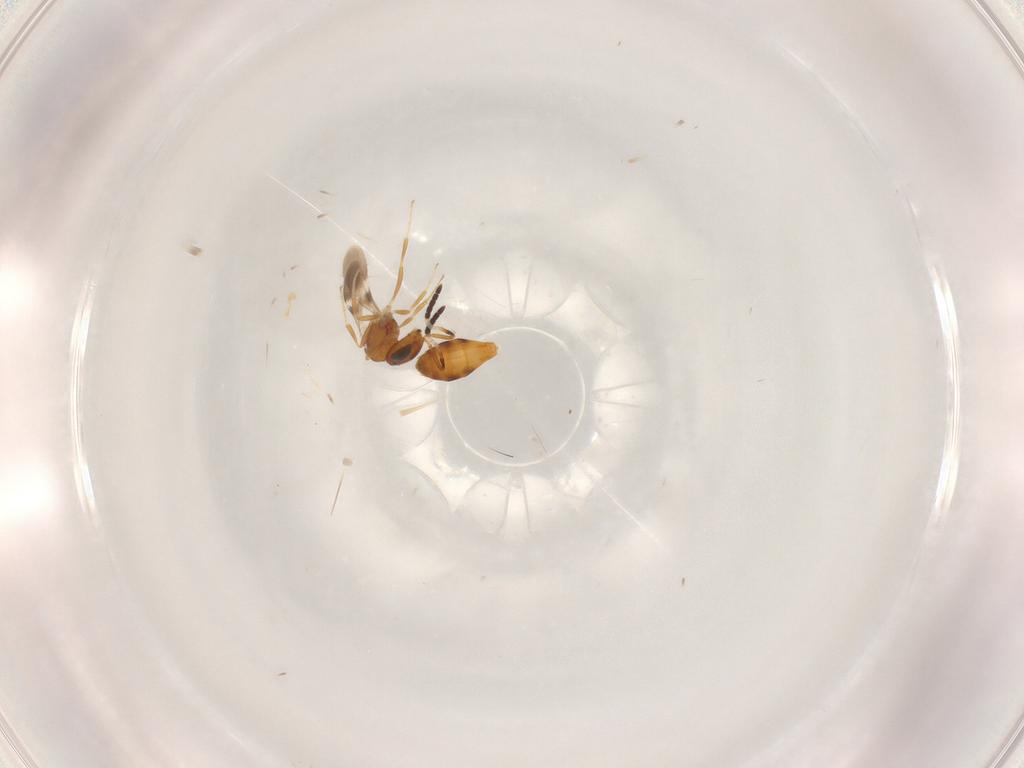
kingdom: Animalia
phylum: Arthropoda
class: Insecta
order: Hymenoptera
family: Scelionidae
